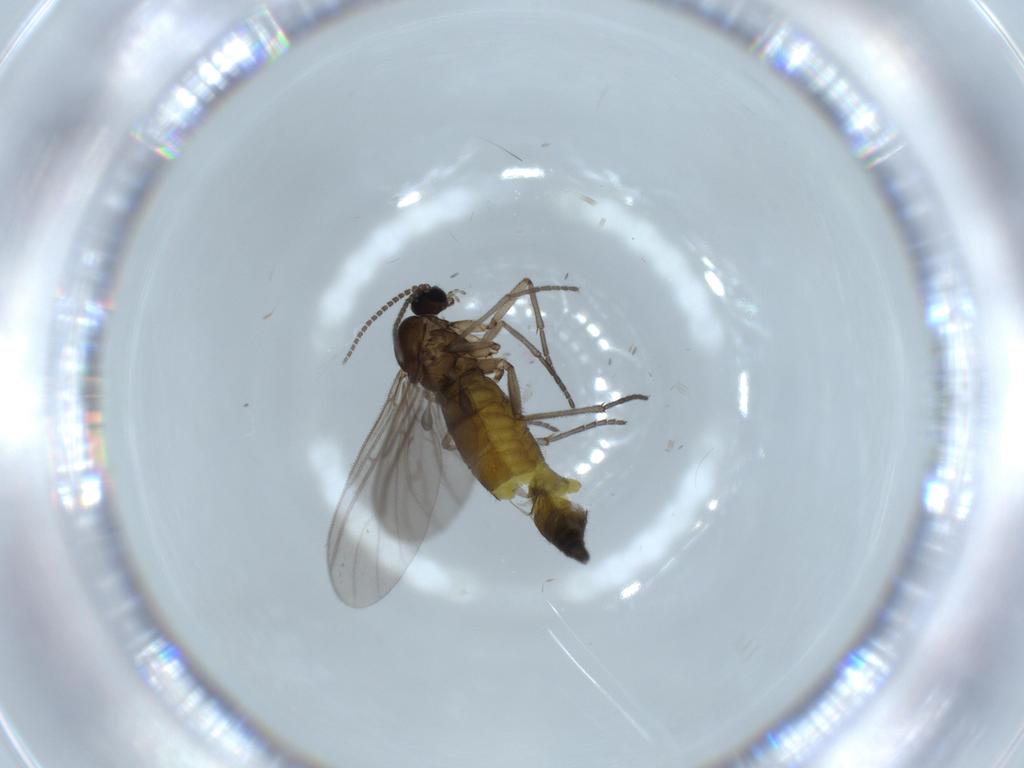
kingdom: Animalia
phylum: Arthropoda
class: Insecta
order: Diptera
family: Sciaridae
